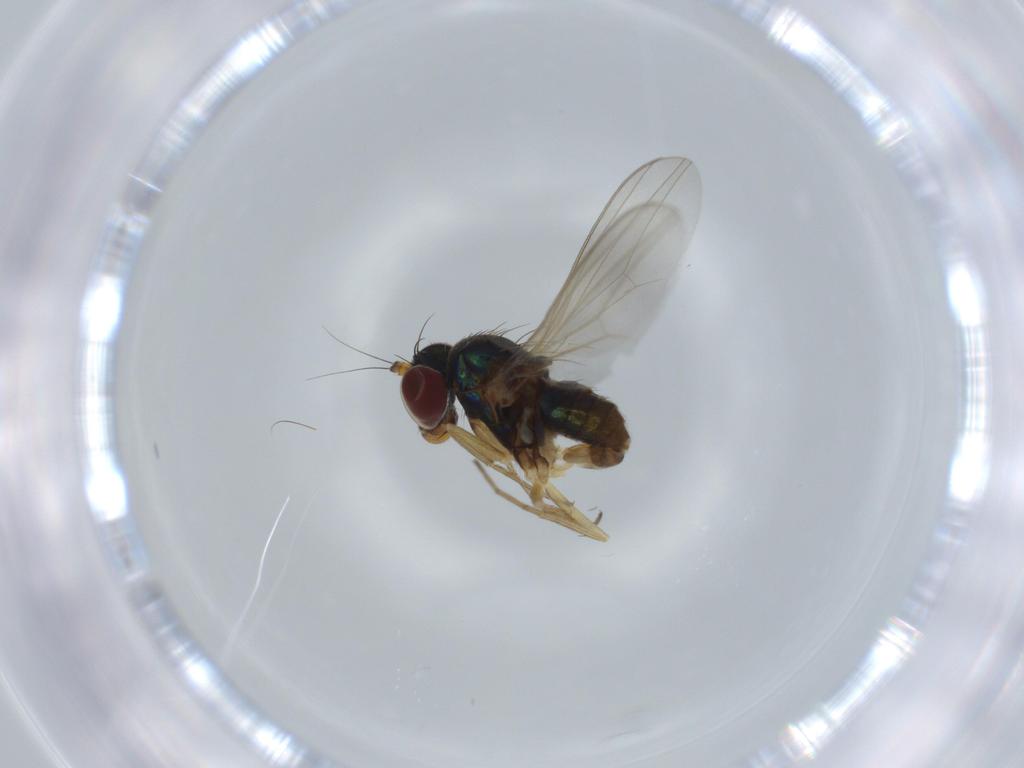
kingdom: Animalia
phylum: Arthropoda
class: Insecta
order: Diptera
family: Dolichopodidae
